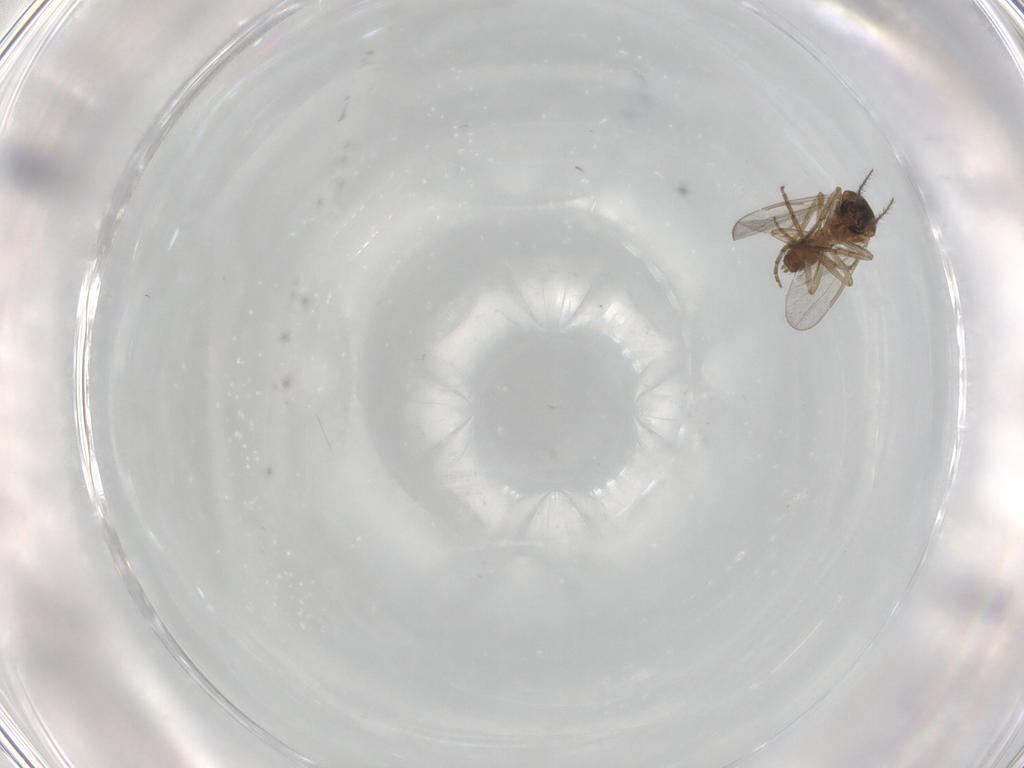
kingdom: Animalia
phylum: Arthropoda
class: Insecta
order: Diptera
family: Ceratopogonidae
